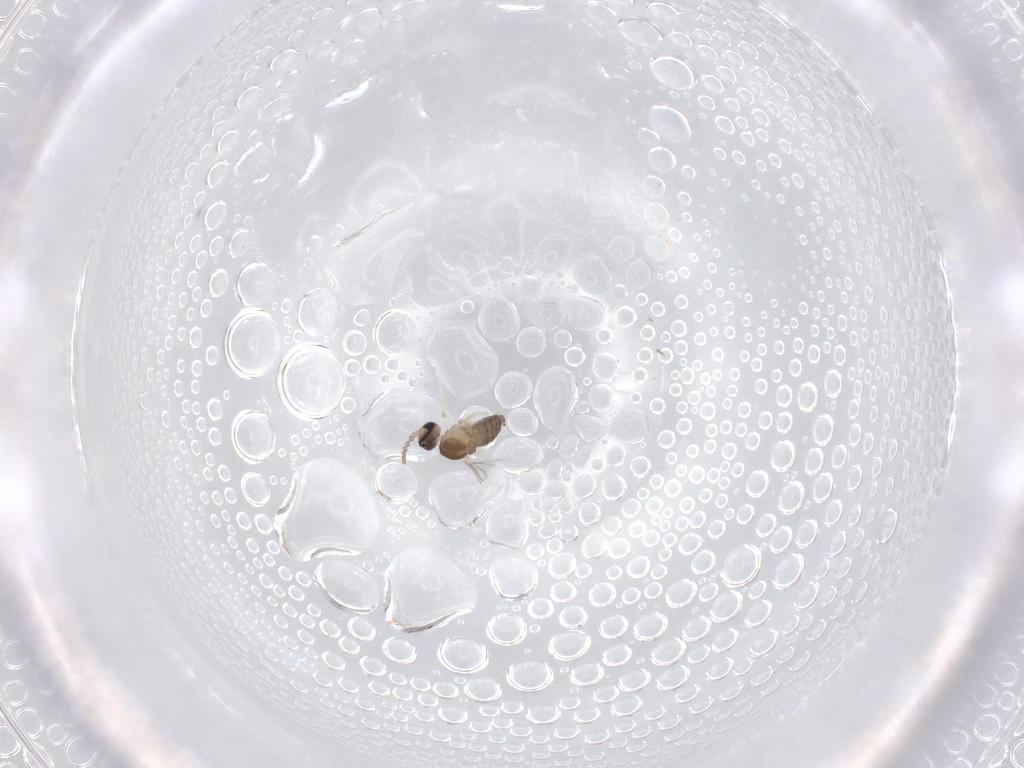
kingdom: Animalia
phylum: Arthropoda
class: Insecta
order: Diptera
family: Cecidomyiidae
